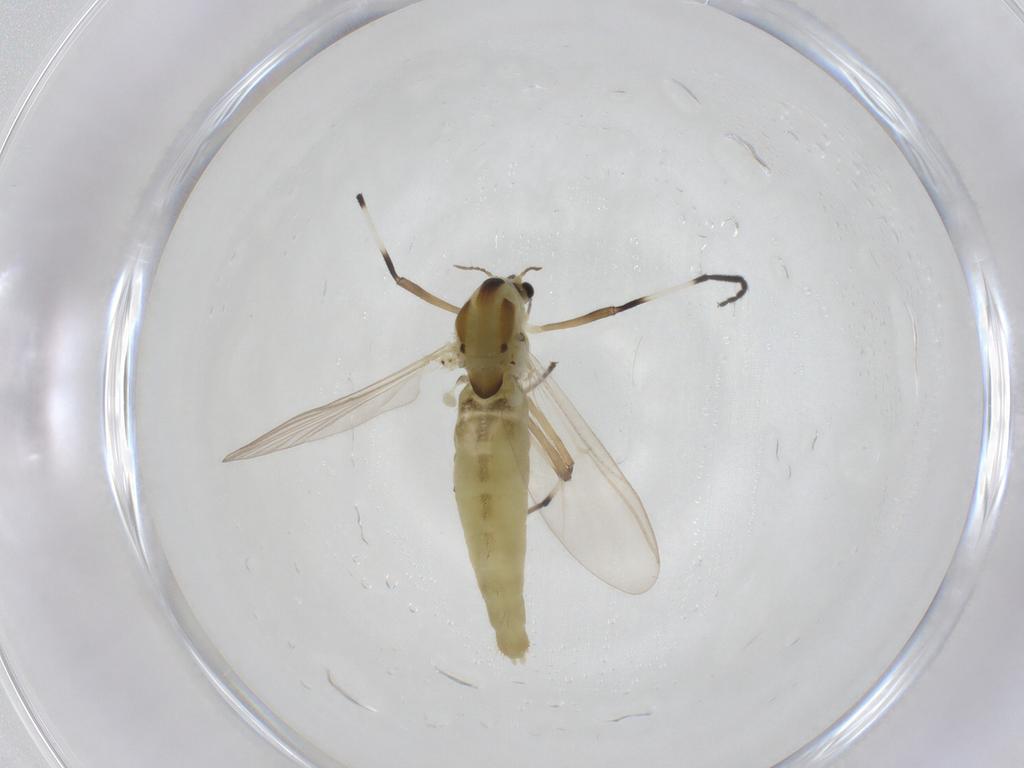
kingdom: Animalia
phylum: Arthropoda
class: Insecta
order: Diptera
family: Chironomidae
